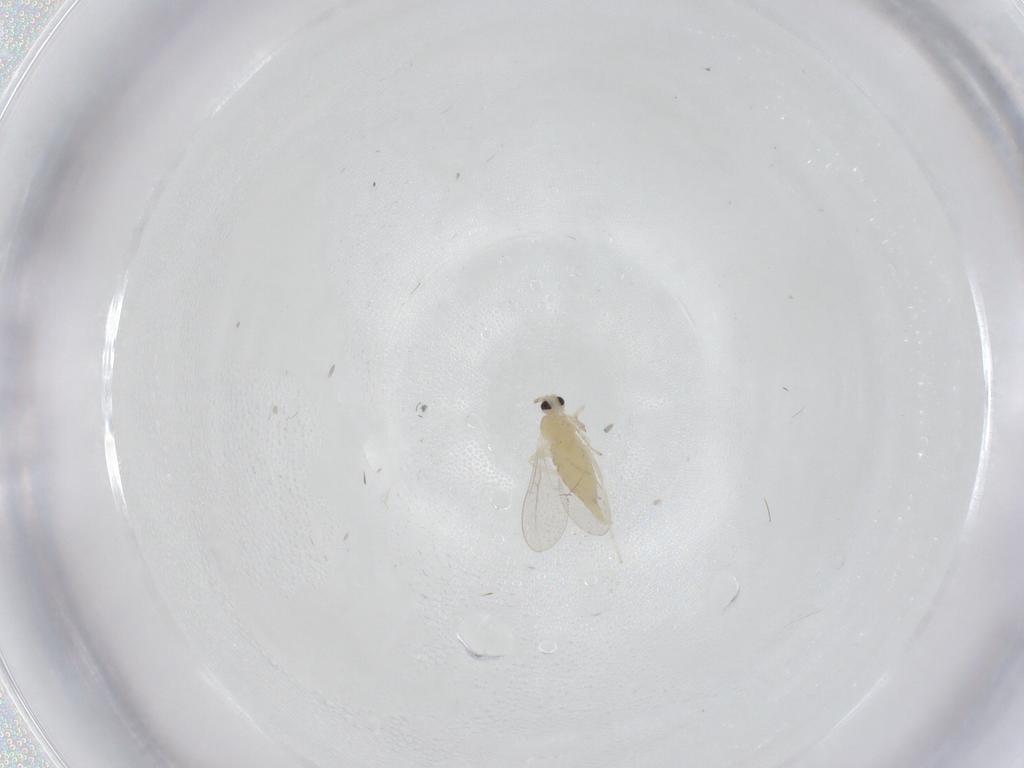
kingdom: Animalia
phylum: Arthropoda
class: Insecta
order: Diptera
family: Cecidomyiidae
